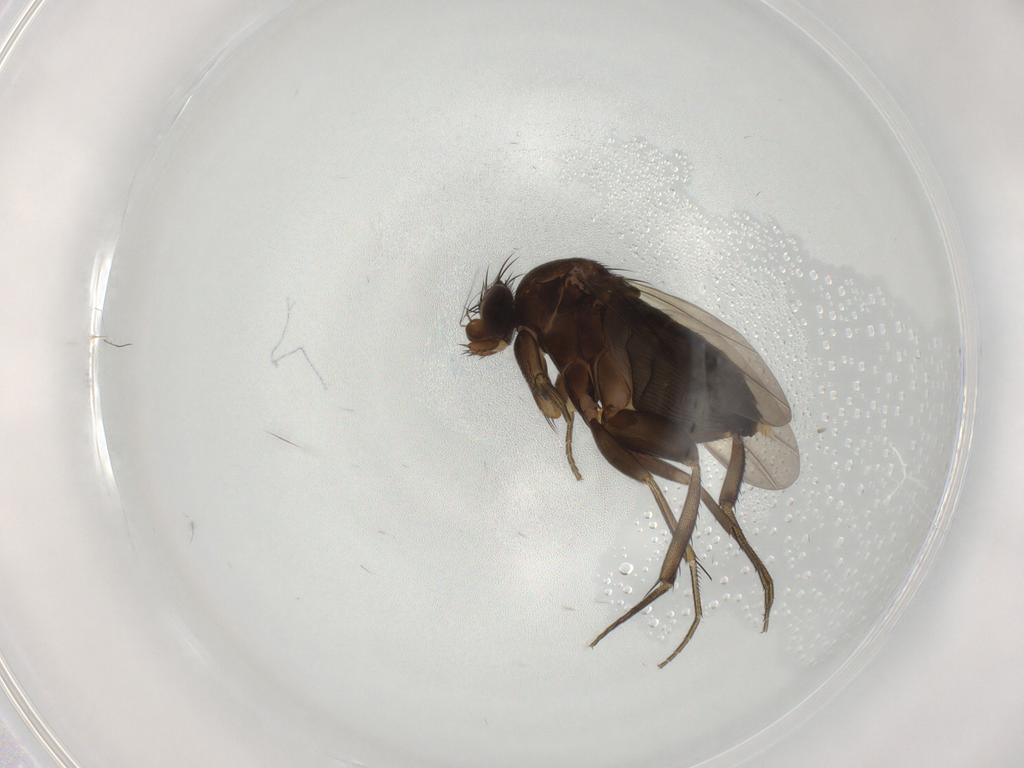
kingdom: Animalia
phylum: Arthropoda
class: Insecta
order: Diptera
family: Phoridae
